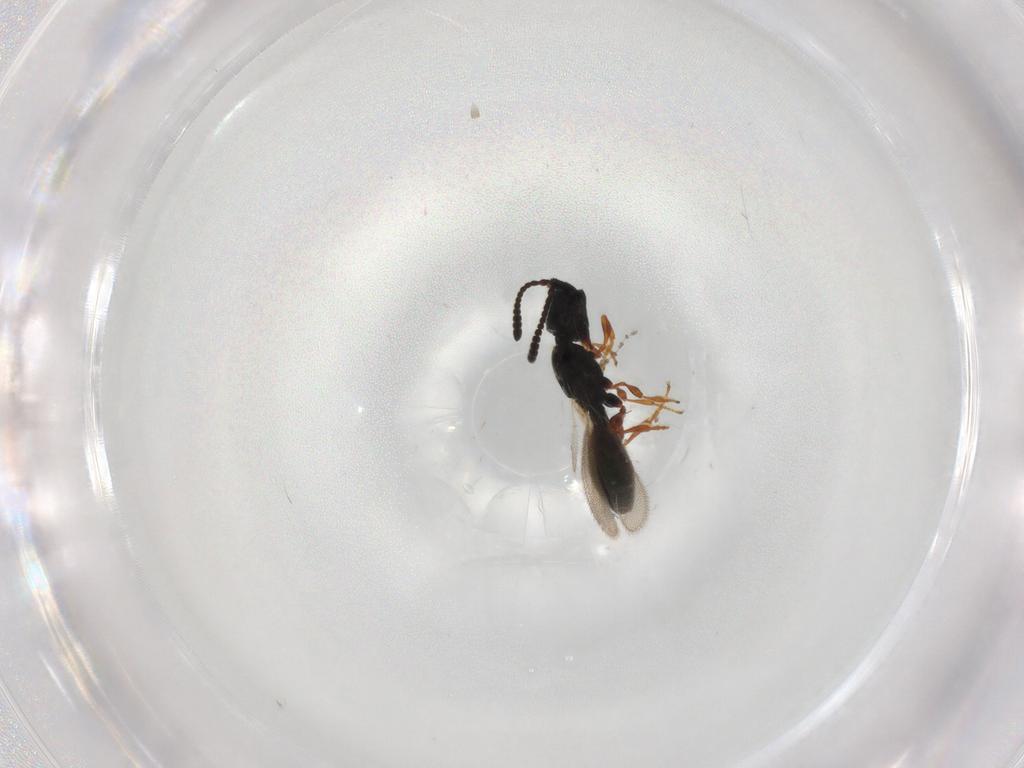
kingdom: Animalia
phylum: Arthropoda
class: Insecta
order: Hymenoptera
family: Diapriidae
